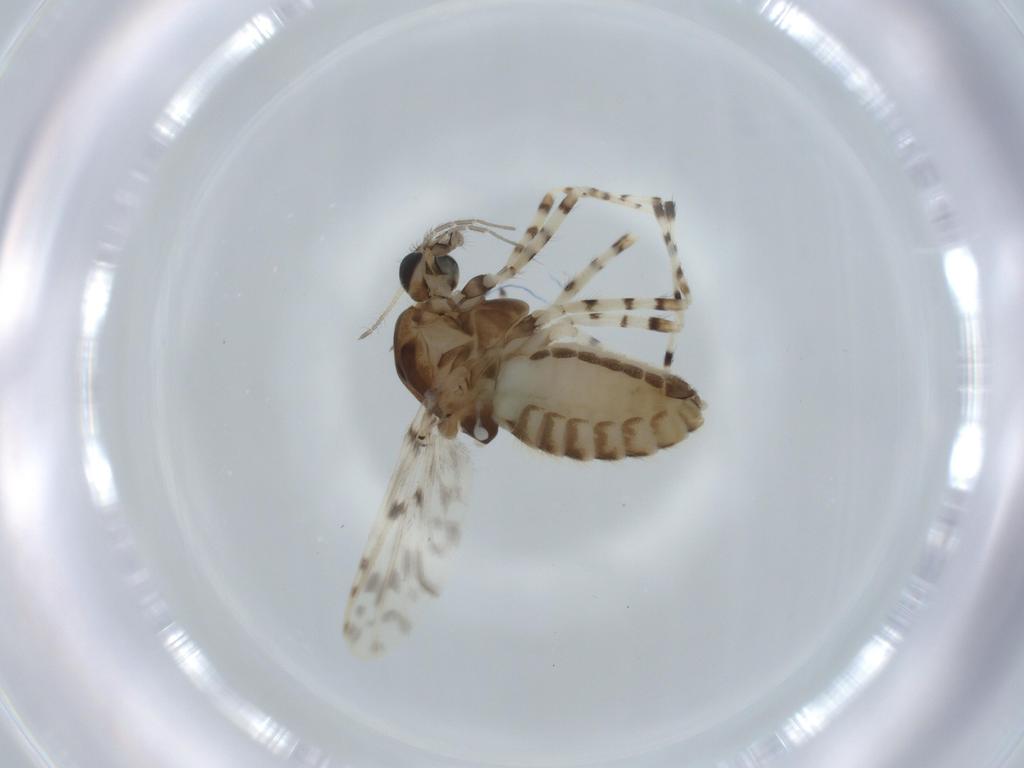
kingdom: Animalia
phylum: Arthropoda
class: Insecta
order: Diptera
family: Chironomidae
